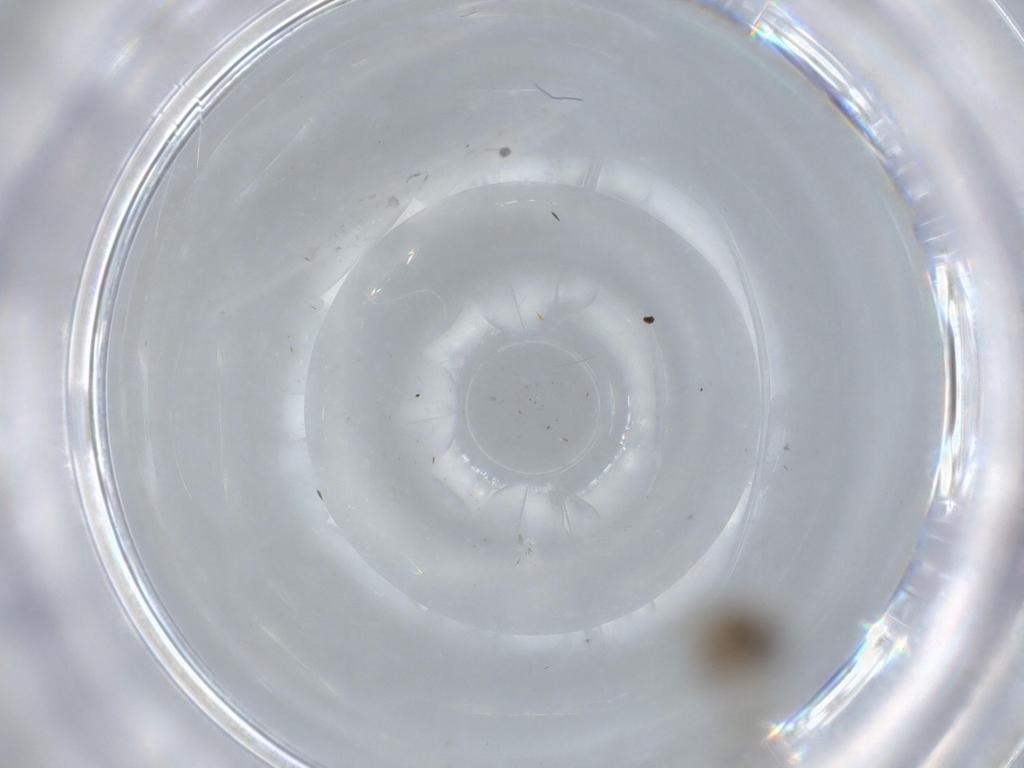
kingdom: Animalia
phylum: Arthropoda
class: Insecta
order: Diptera
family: Cecidomyiidae
